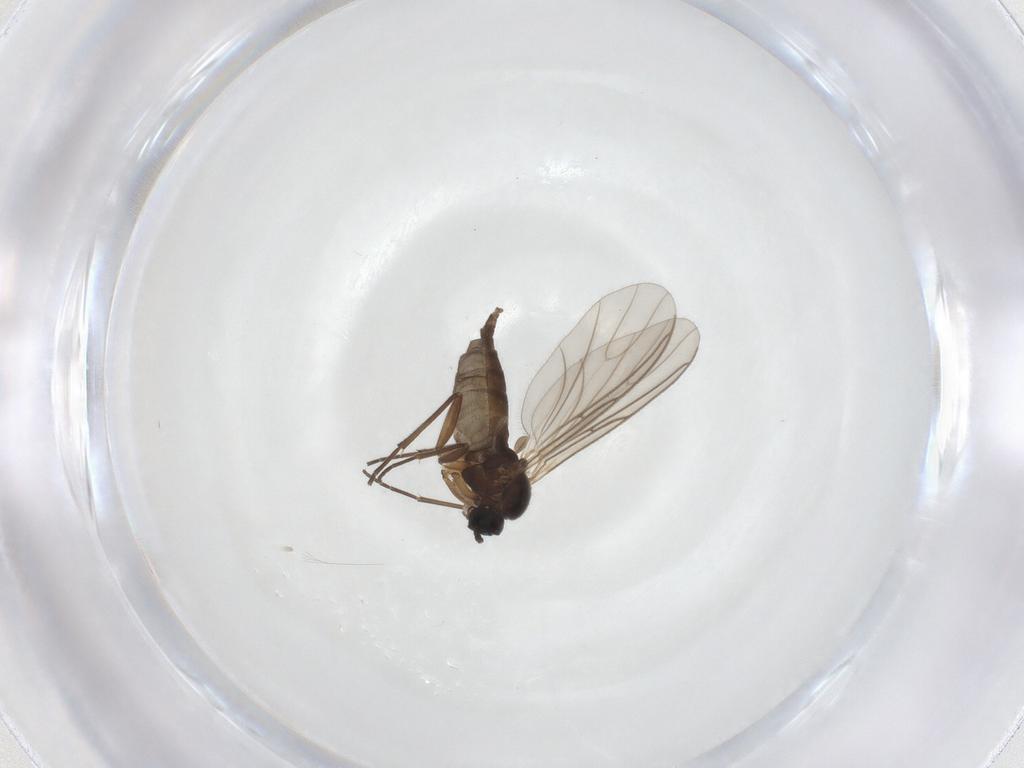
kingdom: Animalia
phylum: Arthropoda
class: Insecta
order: Diptera
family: Sciaridae
